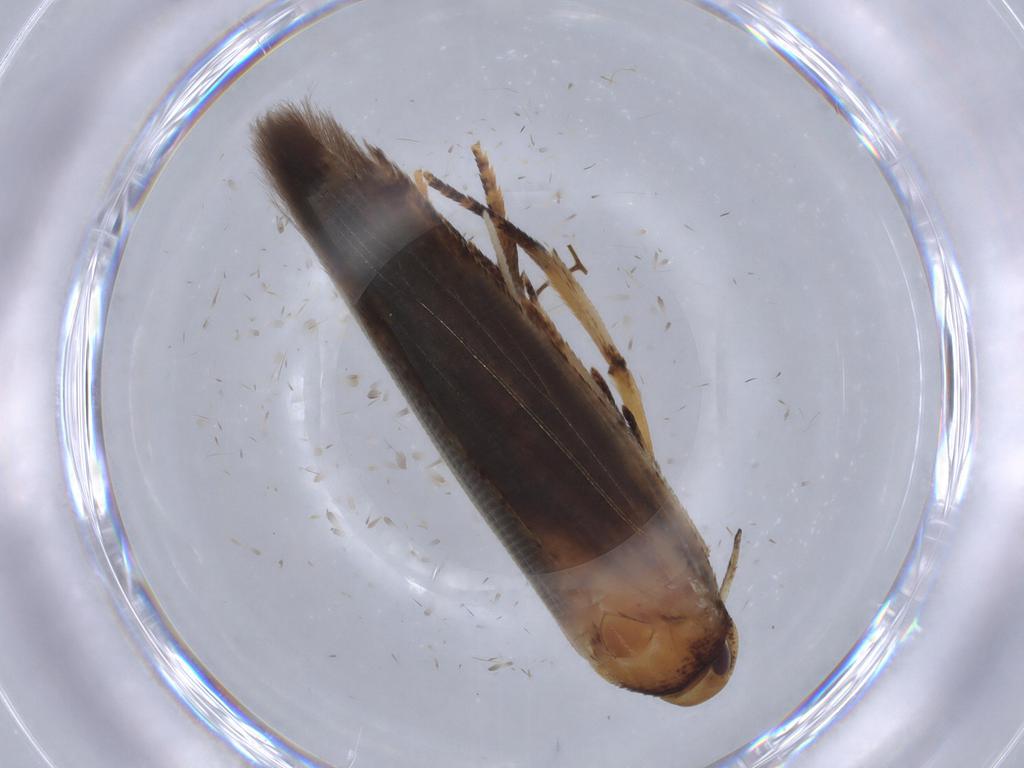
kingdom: Animalia
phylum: Arthropoda
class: Insecta
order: Lepidoptera
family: Cosmopterigidae
